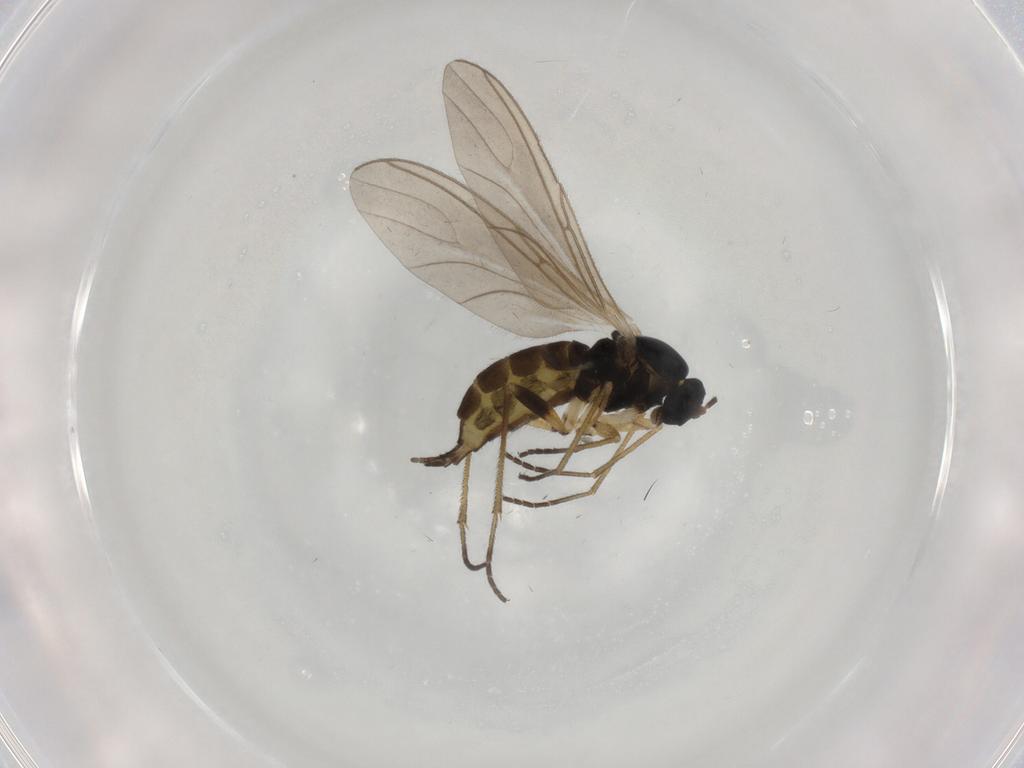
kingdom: Animalia
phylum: Arthropoda
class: Insecta
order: Diptera
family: Sciaridae
